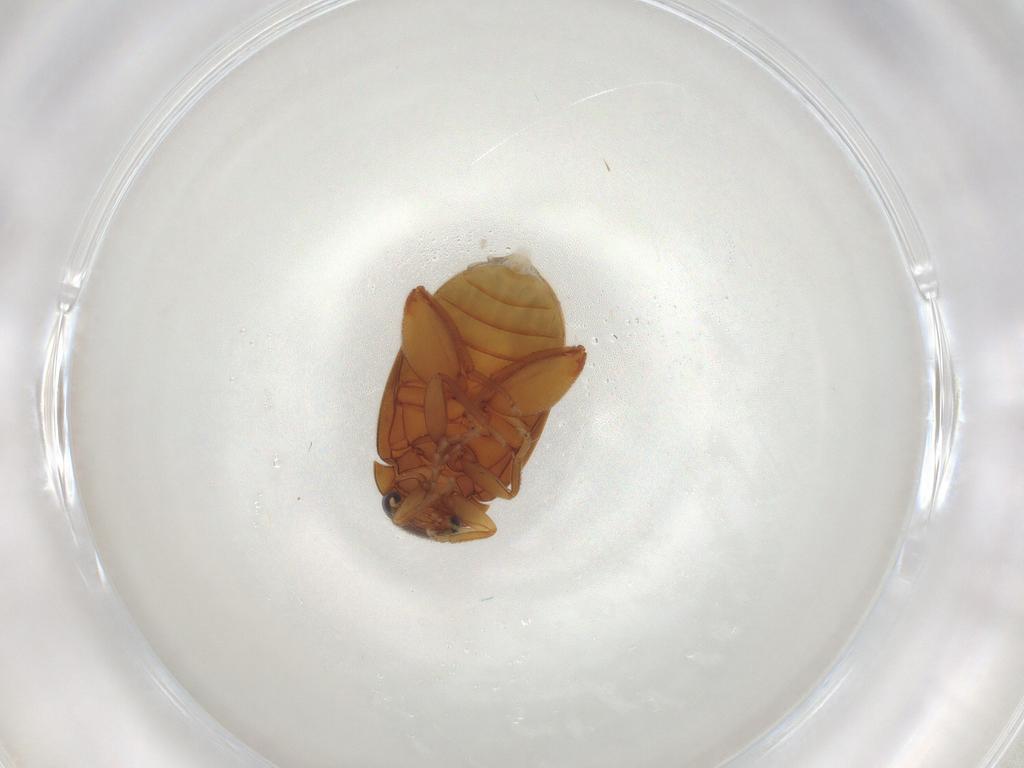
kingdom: Animalia
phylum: Arthropoda
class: Insecta
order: Coleoptera
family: Scirtidae
